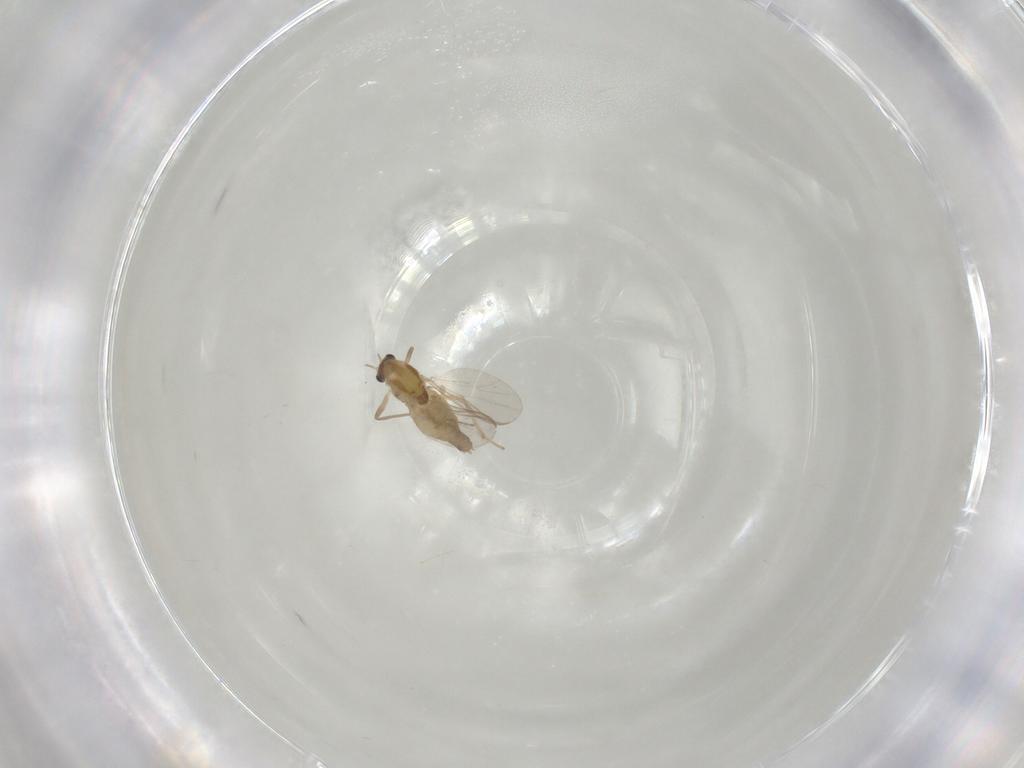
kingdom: Animalia
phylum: Arthropoda
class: Insecta
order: Diptera
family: Chironomidae
